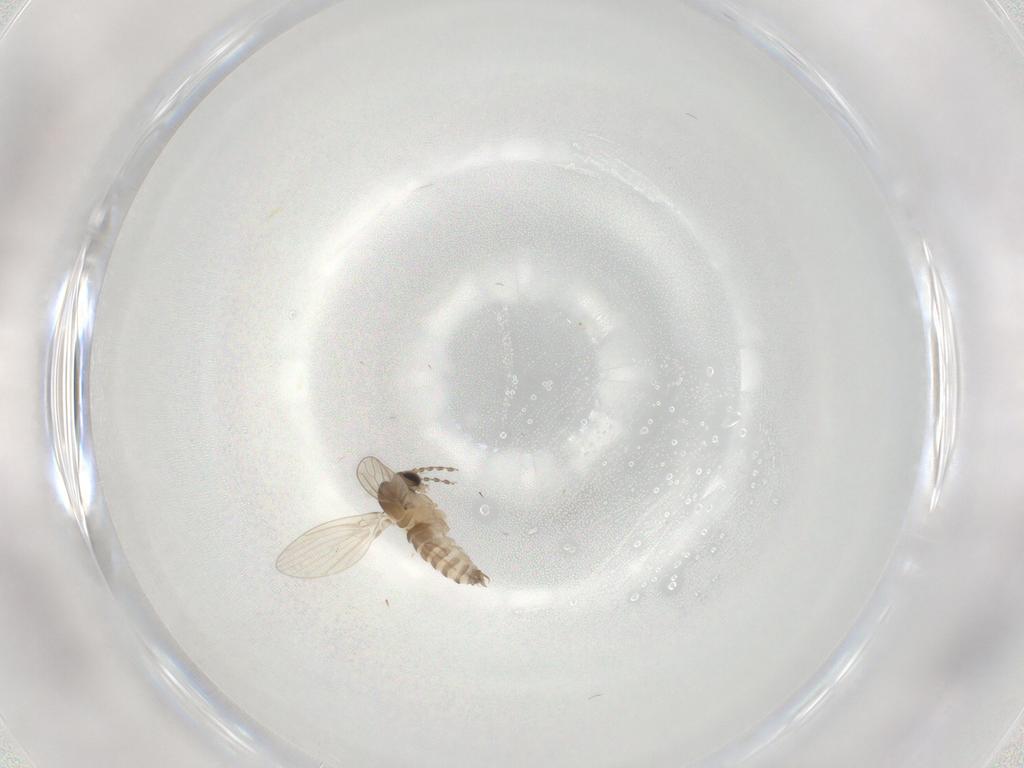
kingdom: Animalia
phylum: Arthropoda
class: Insecta
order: Diptera
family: Psychodidae
